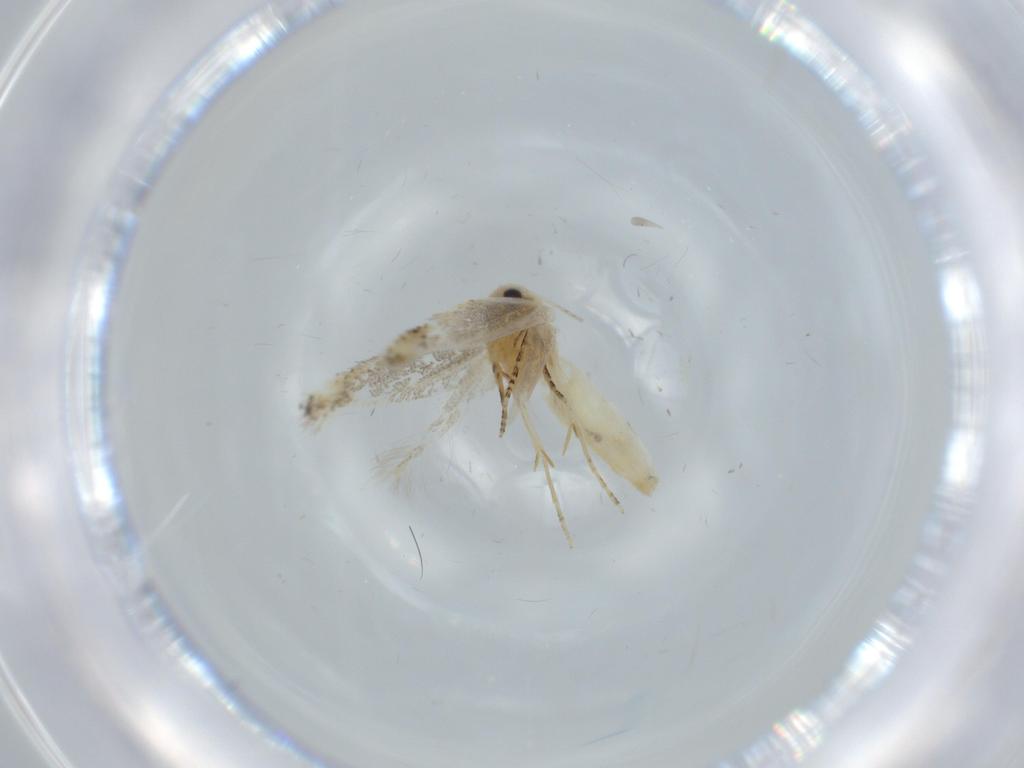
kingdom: Animalia
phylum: Arthropoda
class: Insecta
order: Lepidoptera
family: Bucculatricidae
